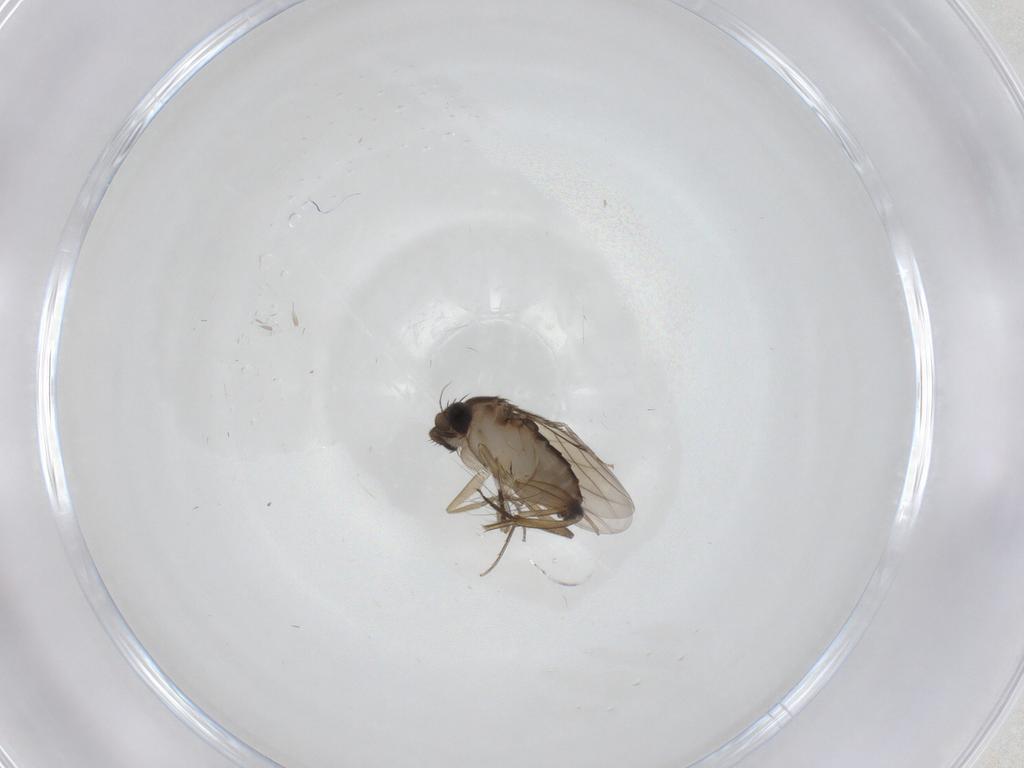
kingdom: Animalia
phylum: Arthropoda
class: Insecta
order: Diptera
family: Phoridae
